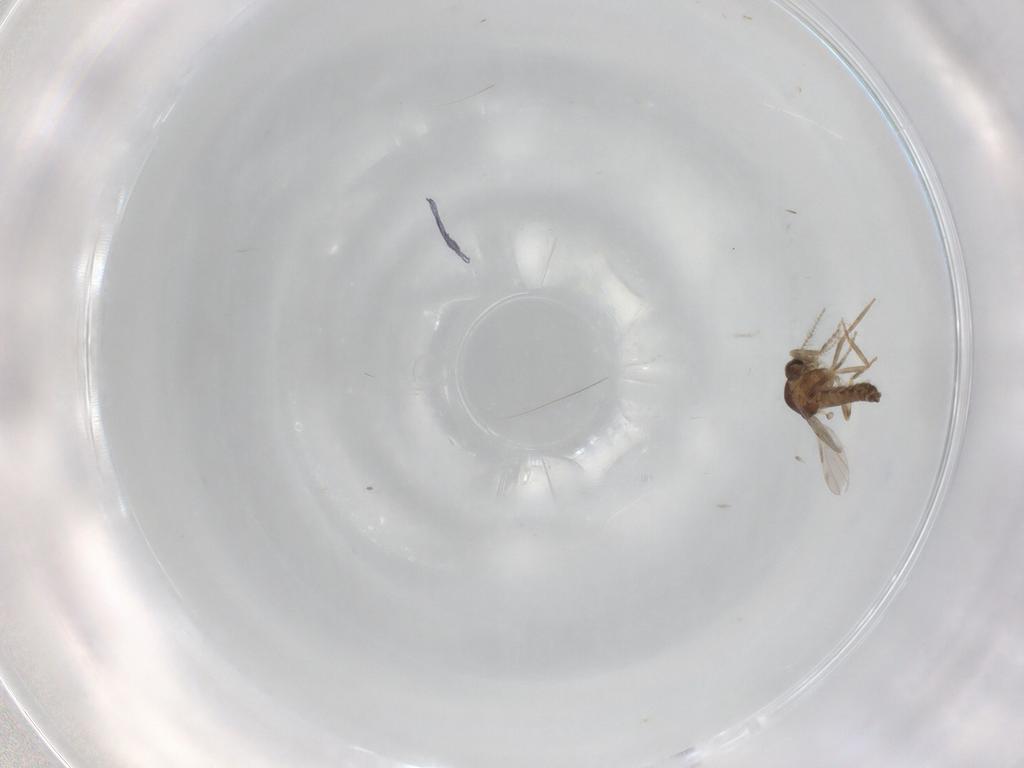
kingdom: Animalia
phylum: Arthropoda
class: Insecta
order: Diptera
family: Ceratopogonidae
